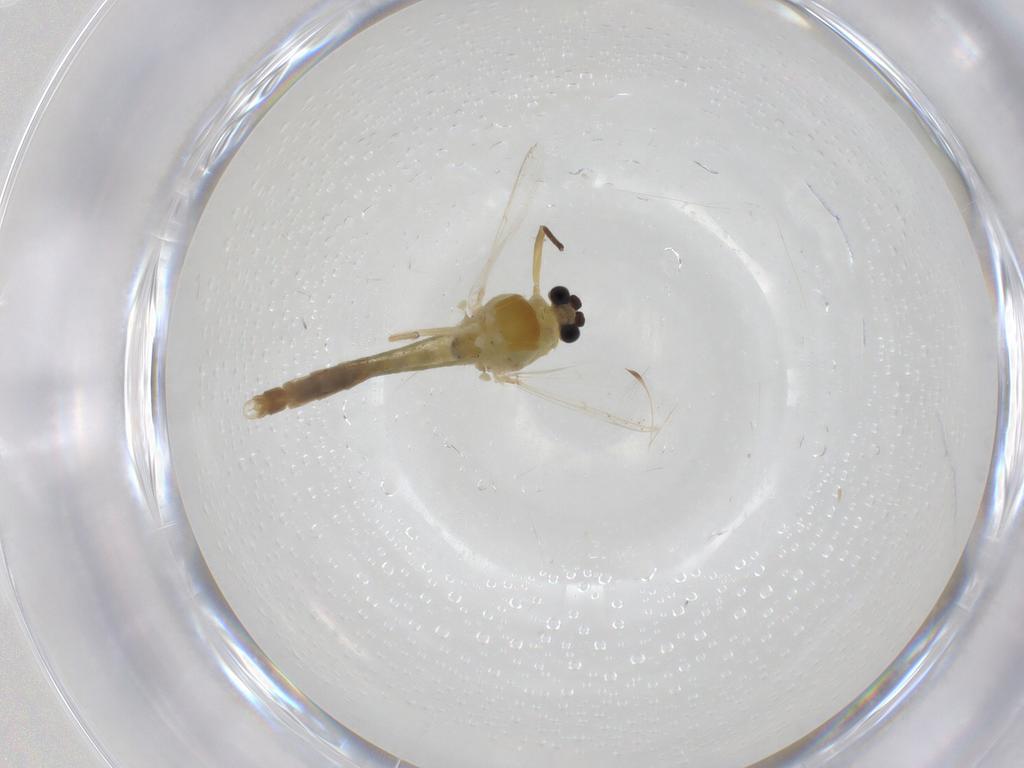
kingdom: Animalia
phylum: Arthropoda
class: Insecta
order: Diptera
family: Chironomidae
